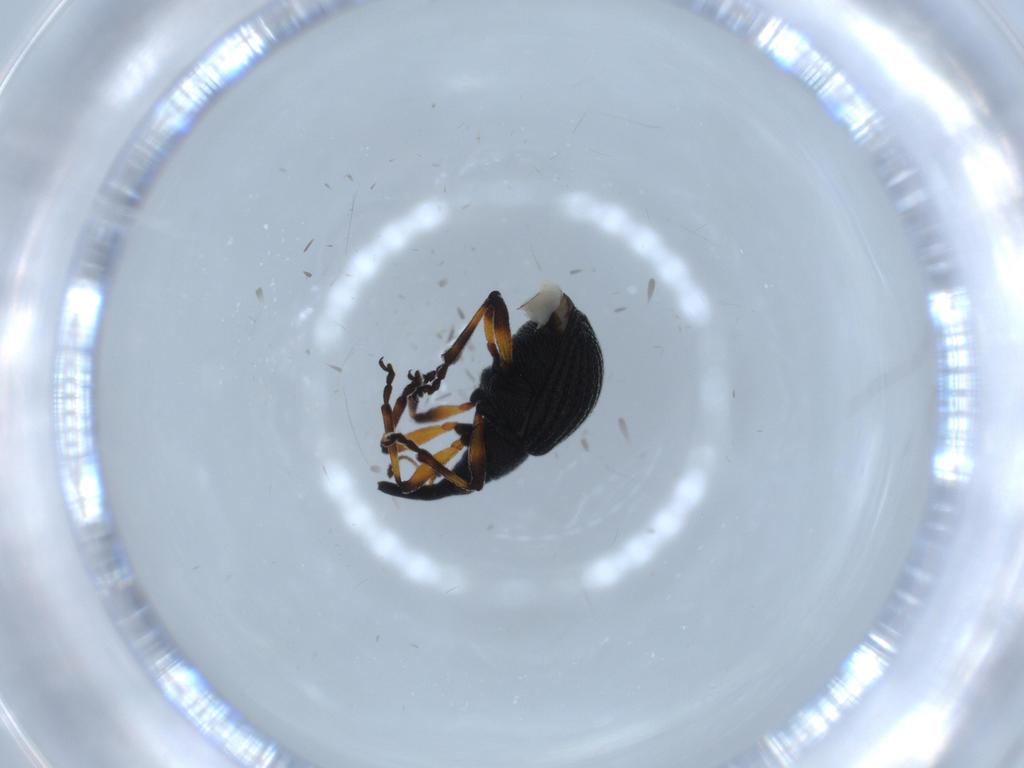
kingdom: Animalia
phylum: Arthropoda
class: Insecta
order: Coleoptera
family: Brentidae
